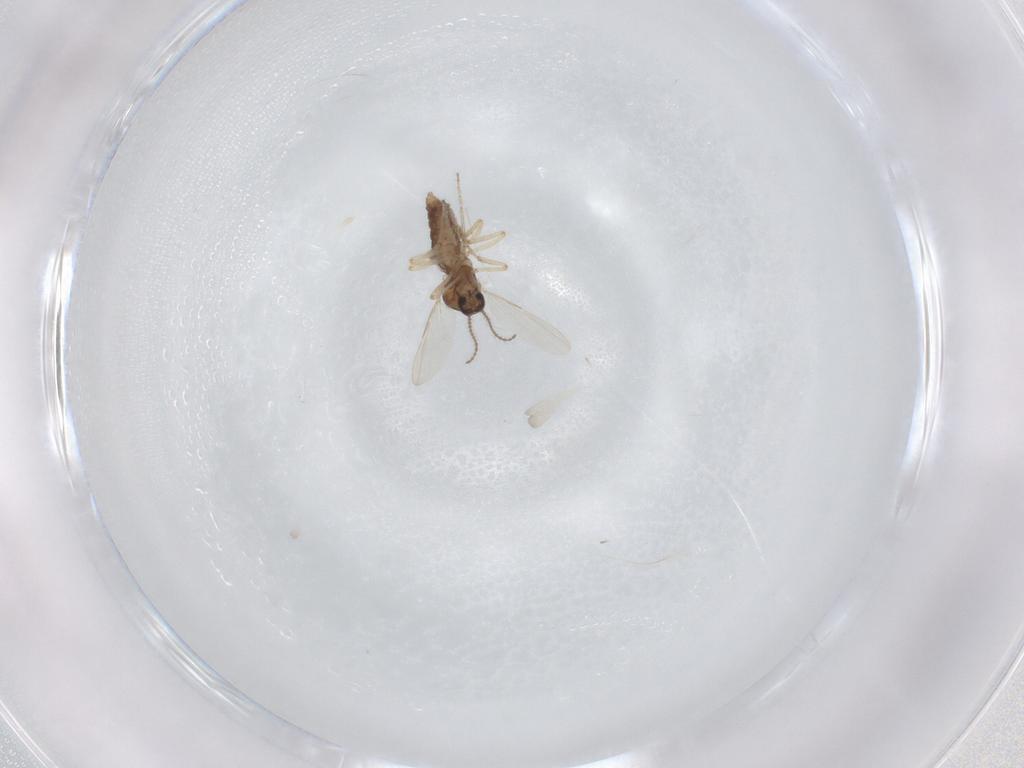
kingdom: Animalia
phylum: Arthropoda
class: Insecta
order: Diptera
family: Ceratopogonidae
